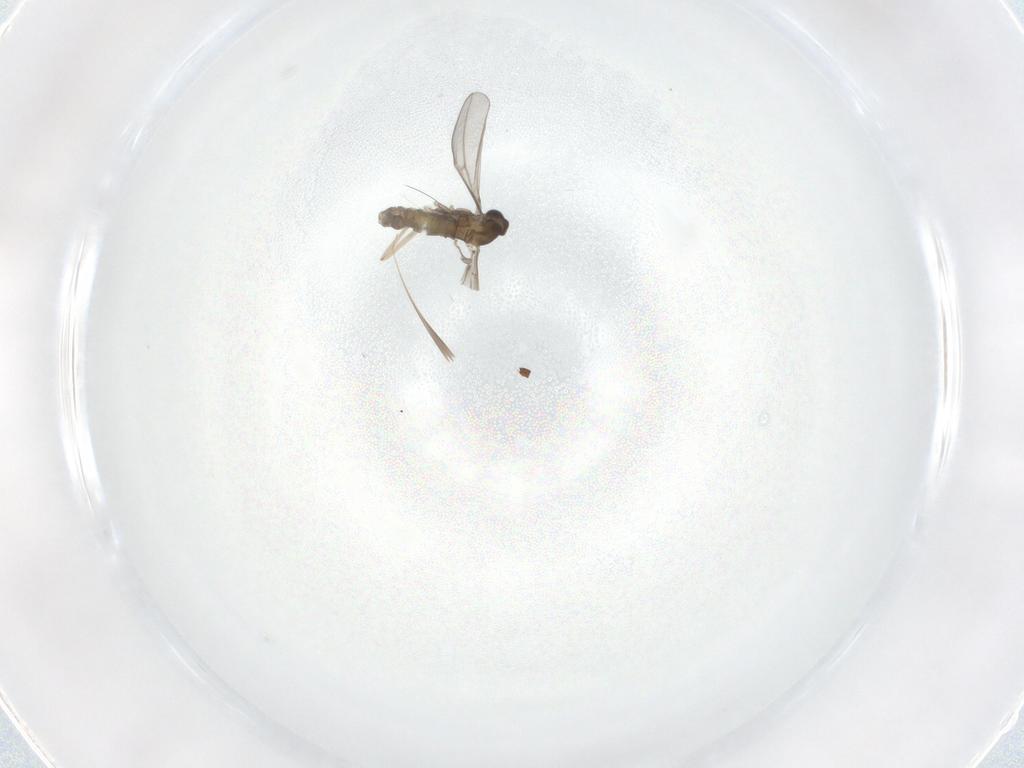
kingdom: Animalia
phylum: Arthropoda
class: Insecta
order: Diptera
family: Cecidomyiidae
